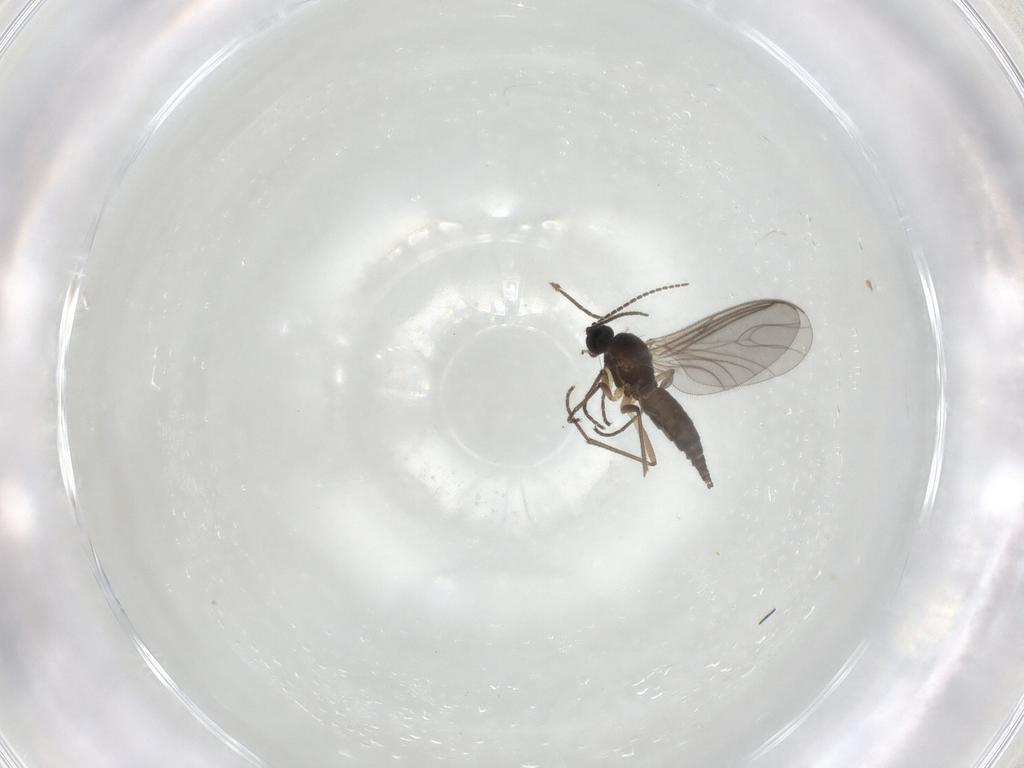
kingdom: Animalia
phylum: Arthropoda
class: Insecta
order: Diptera
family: Sciaridae
